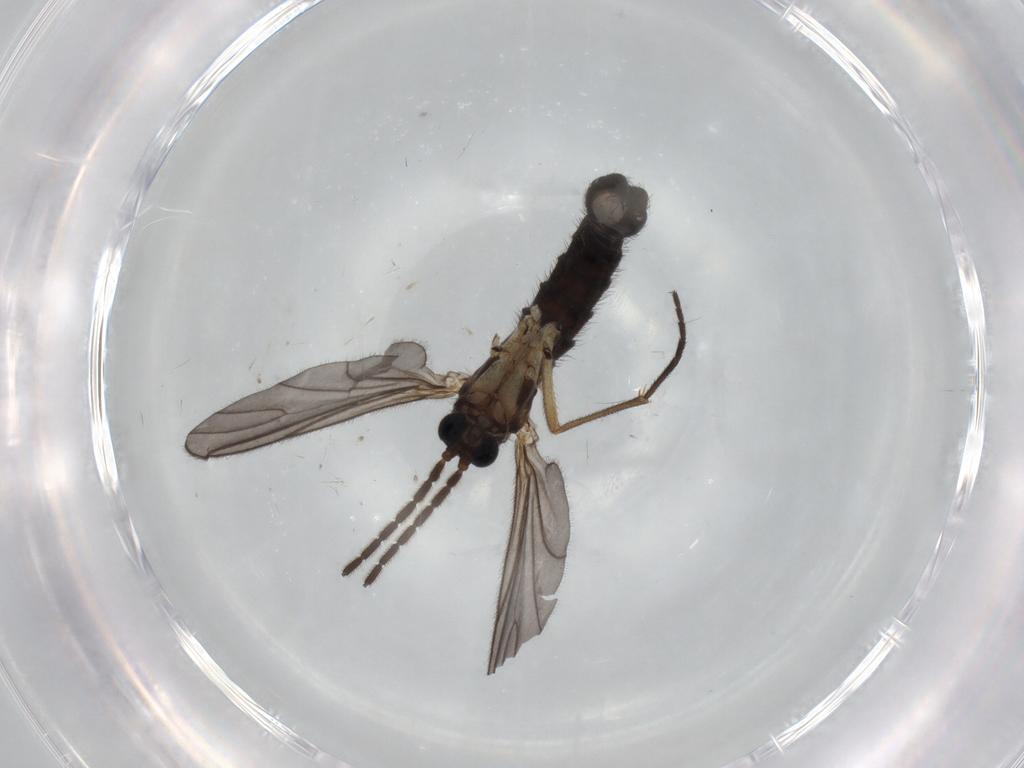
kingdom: Animalia
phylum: Arthropoda
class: Insecta
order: Diptera
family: Sciaridae
